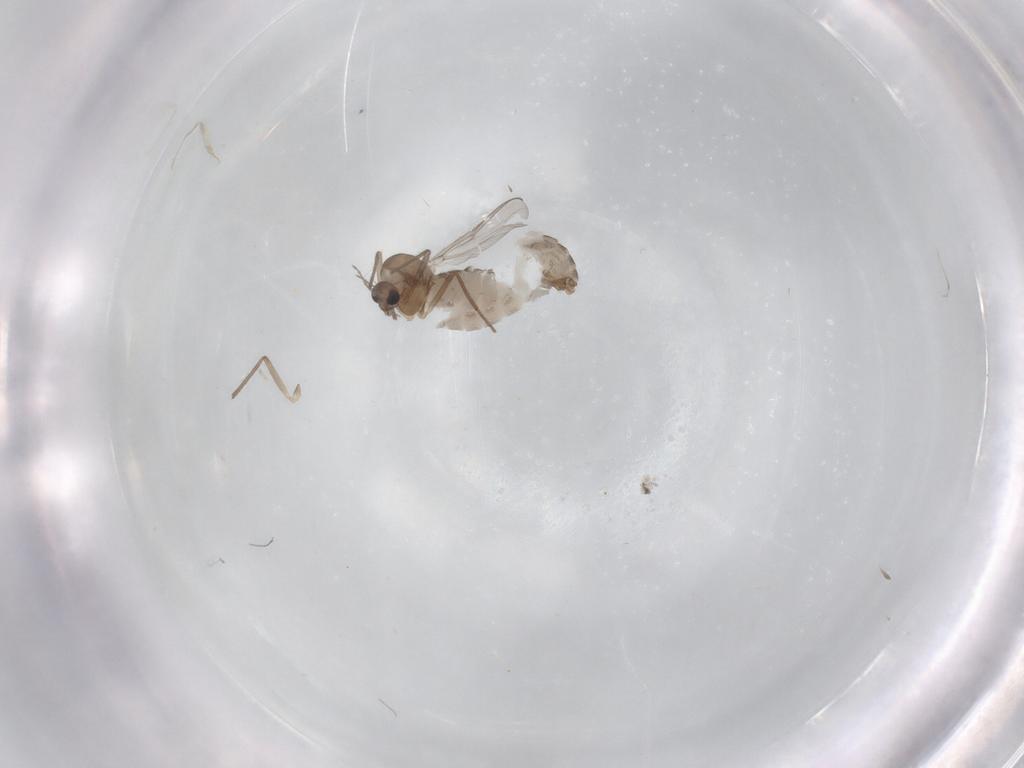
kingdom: Animalia
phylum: Arthropoda
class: Insecta
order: Diptera
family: Chironomidae
